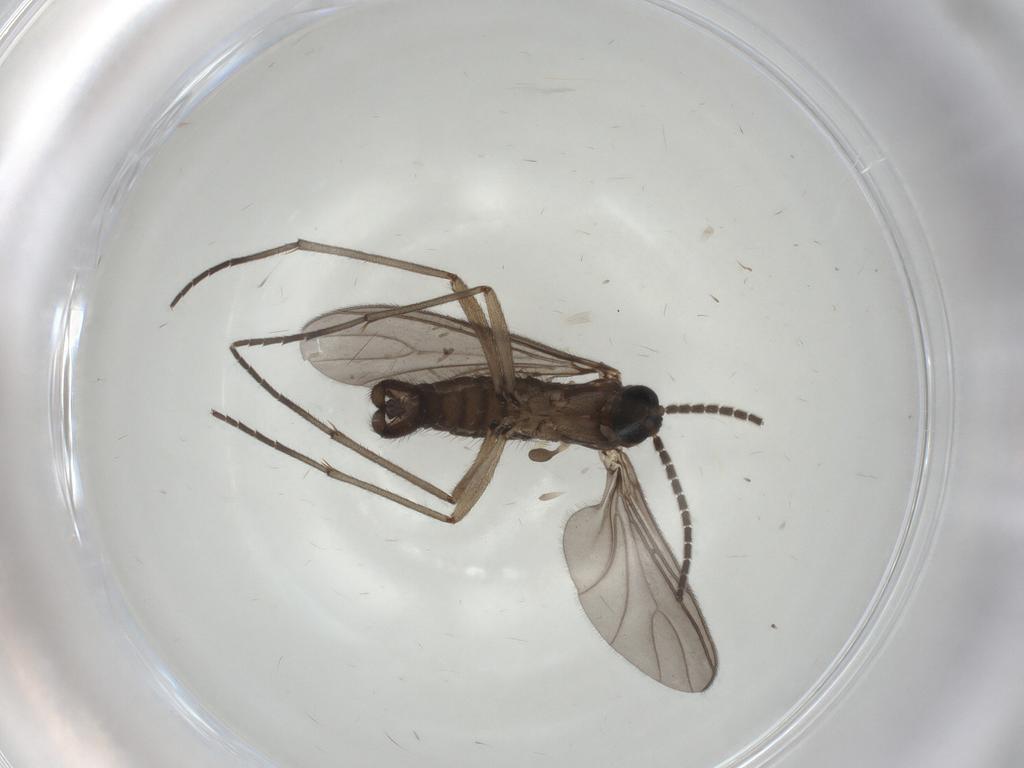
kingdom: Animalia
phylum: Arthropoda
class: Insecta
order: Diptera
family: Sciaridae
